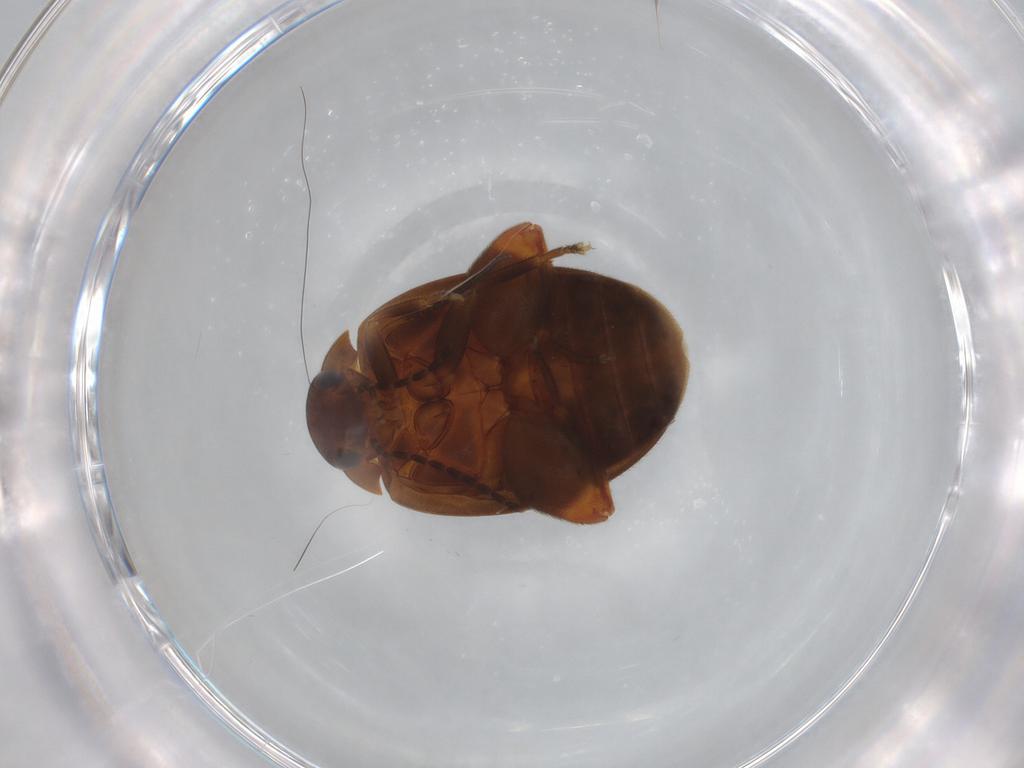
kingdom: Animalia
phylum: Arthropoda
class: Insecta
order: Coleoptera
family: Scirtidae
